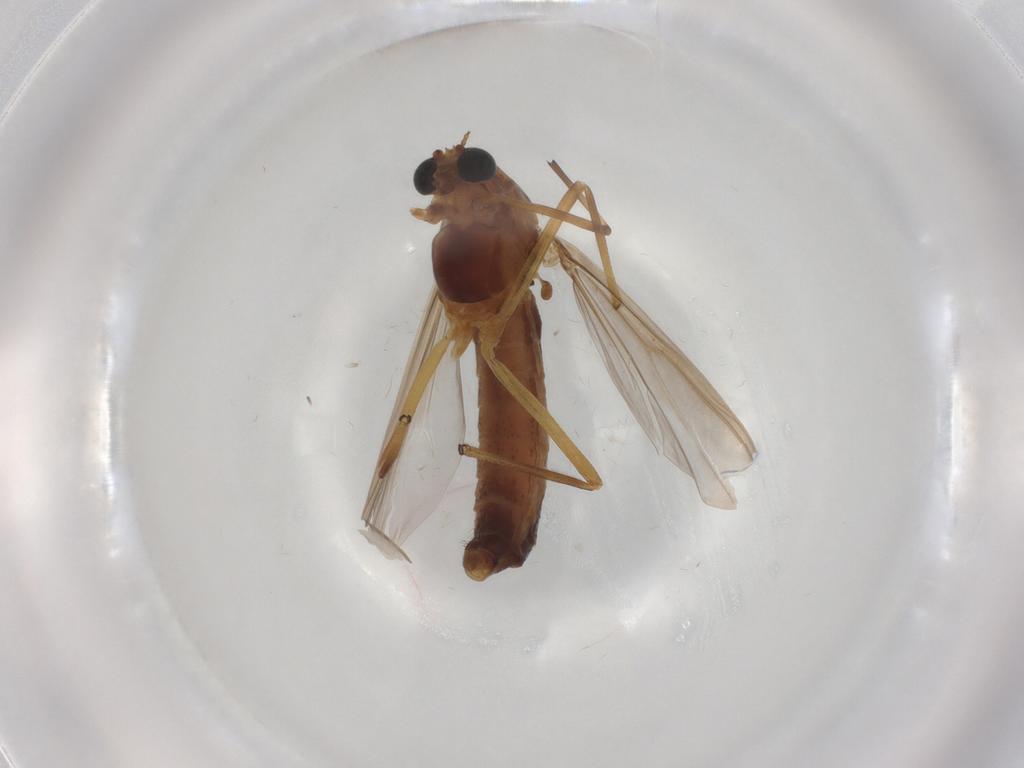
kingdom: Animalia
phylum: Arthropoda
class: Insecta
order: Diptera
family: Chironomidae
